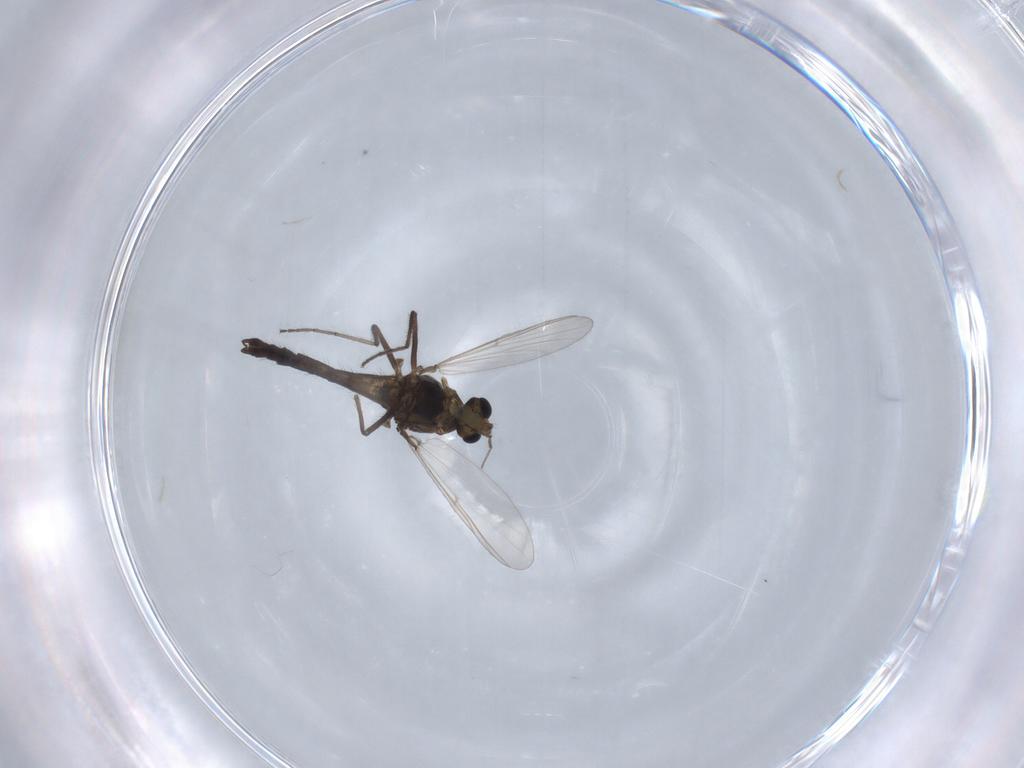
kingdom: Animalia
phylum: Arthropoda
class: Insecta
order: Diptera
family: Chironomidae
